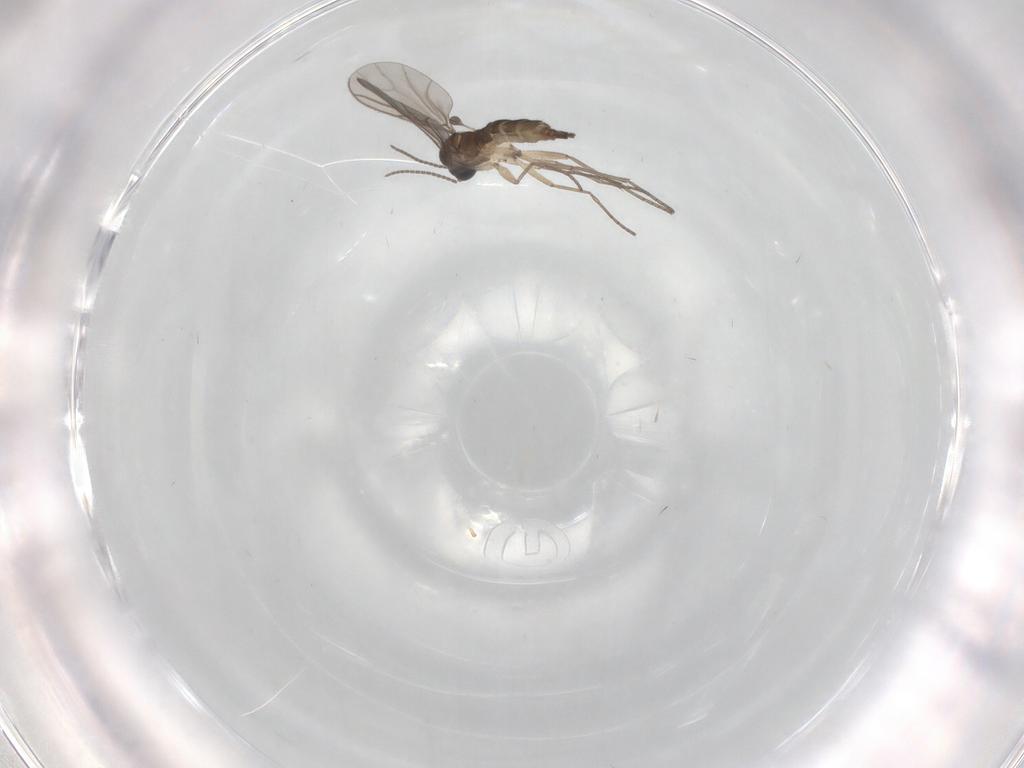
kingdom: Animalia
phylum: Arthropoda
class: Insecta
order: Diptera
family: Sciaridae
